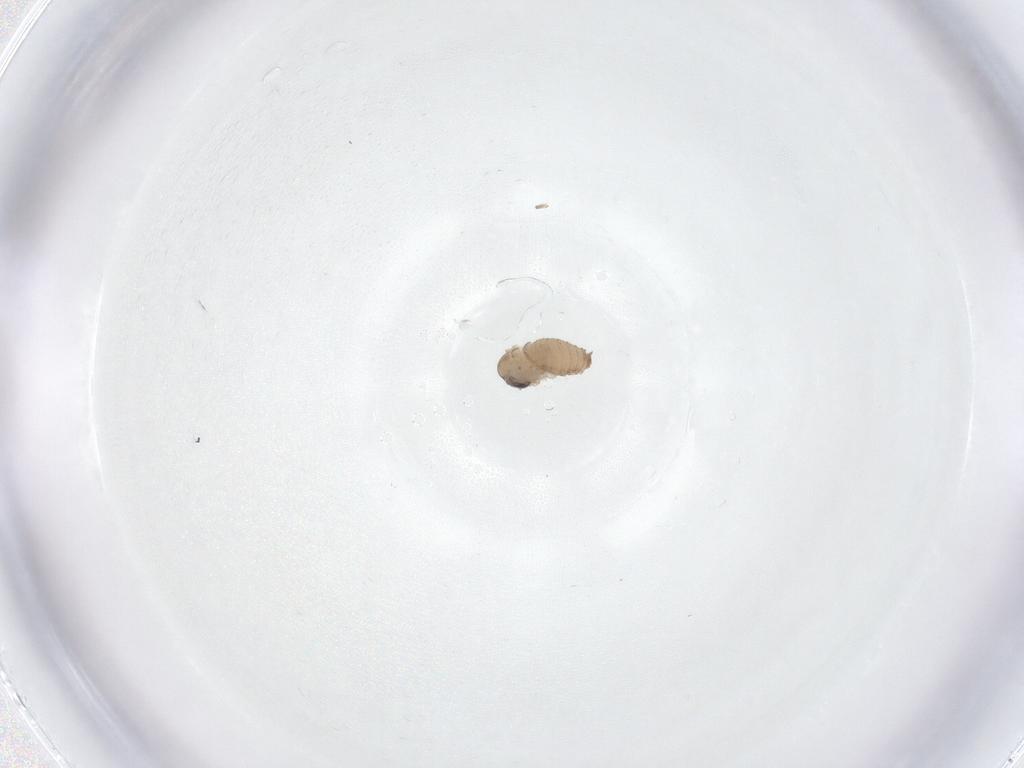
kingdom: Animalia
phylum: Arthropoda
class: Insecta
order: Diptera
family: Psychodidae
